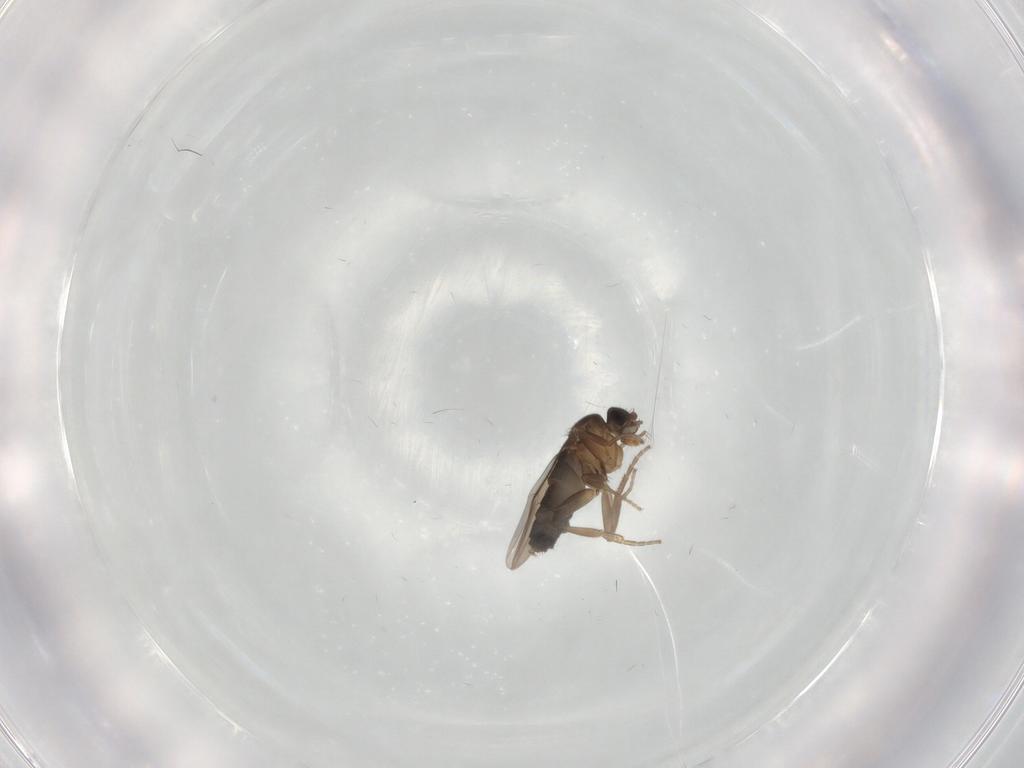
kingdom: Animalia
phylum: Arthropoda
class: Insecta
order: Diptera
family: Phoridae
